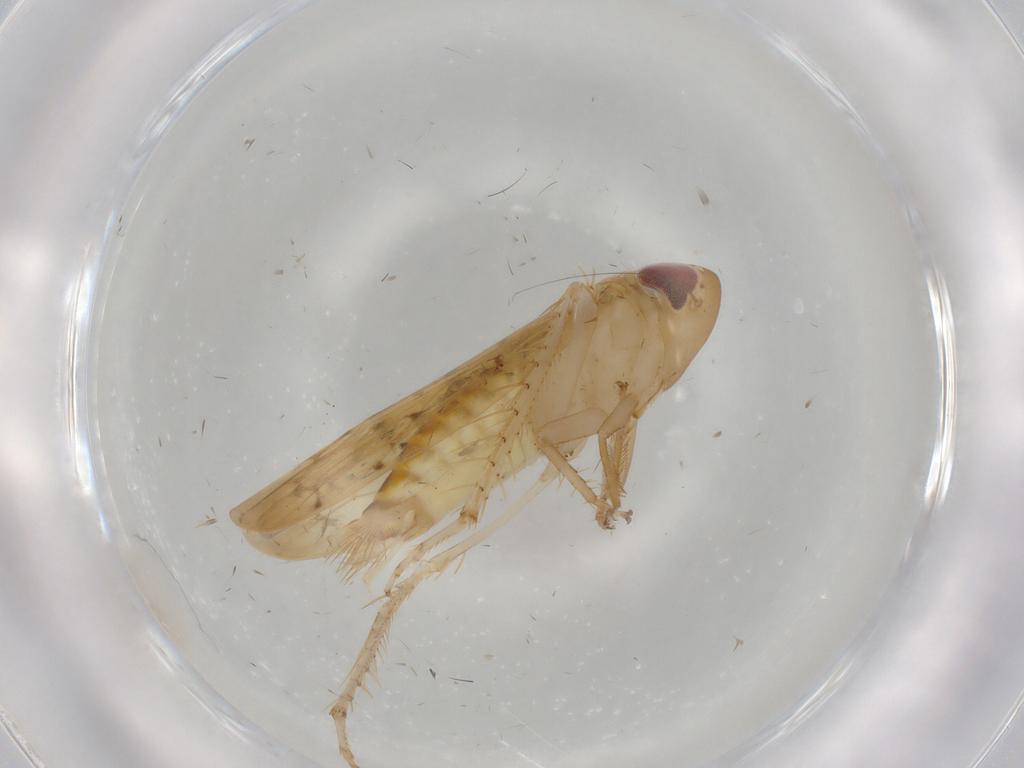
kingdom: Animalia
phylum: Arthropoda
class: Insecta
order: Hemiptera
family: Cicadellidae
